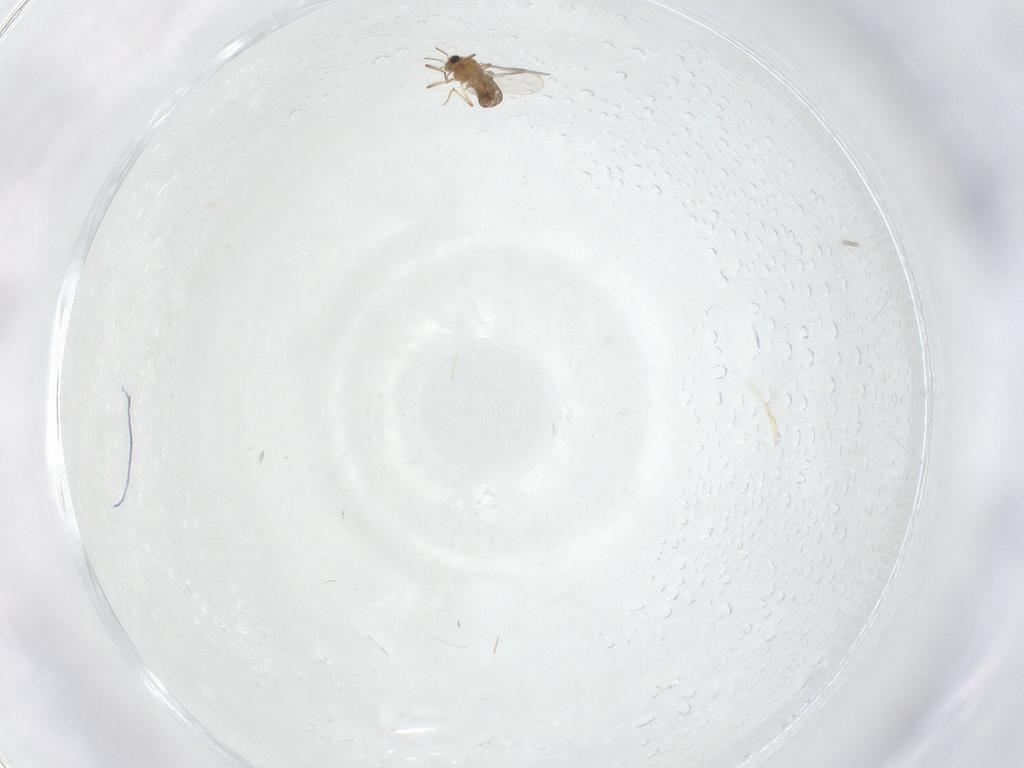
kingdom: Animalia
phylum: Arthropoda
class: Insecta
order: Diptera
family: Chironomidae
